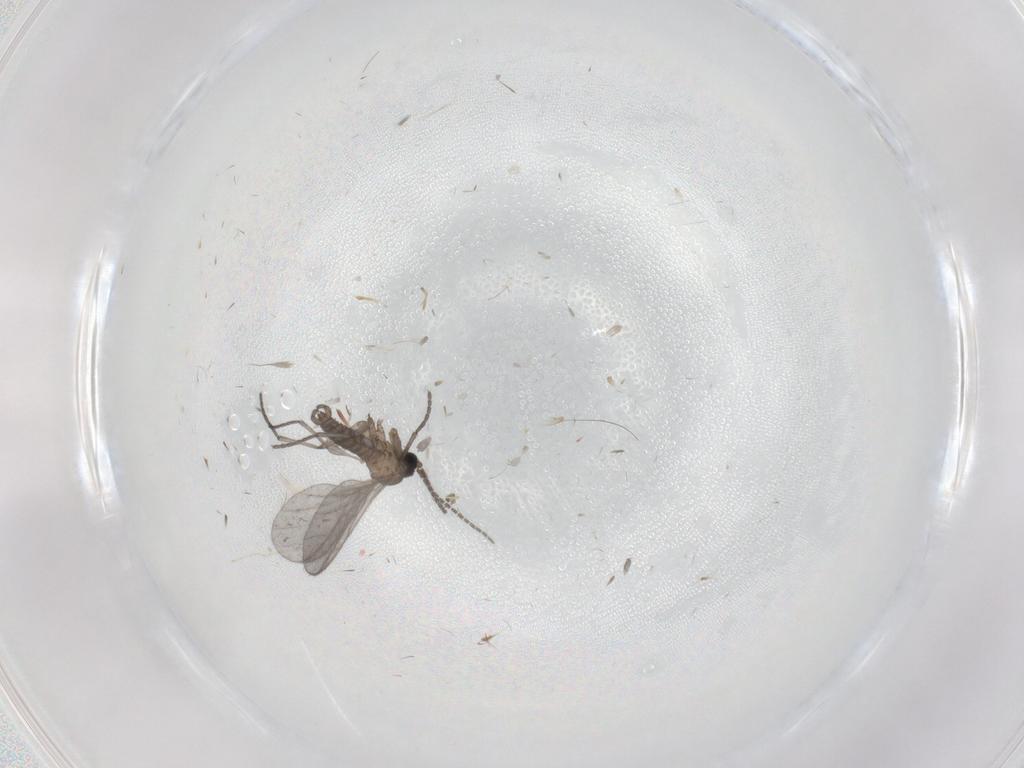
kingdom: Animalia
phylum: Arthropoda
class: Insecta
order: Diptera
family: Sciaridae
